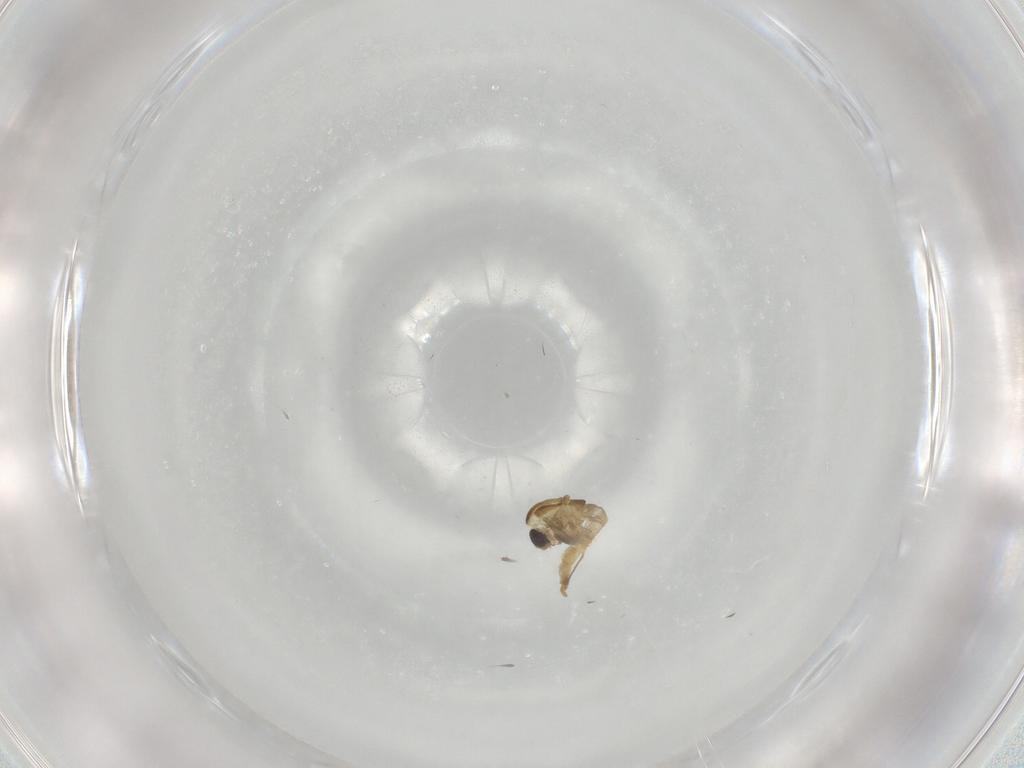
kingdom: Animalia
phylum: Arthropoda
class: Insecta
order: Diptera
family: Phoridae
